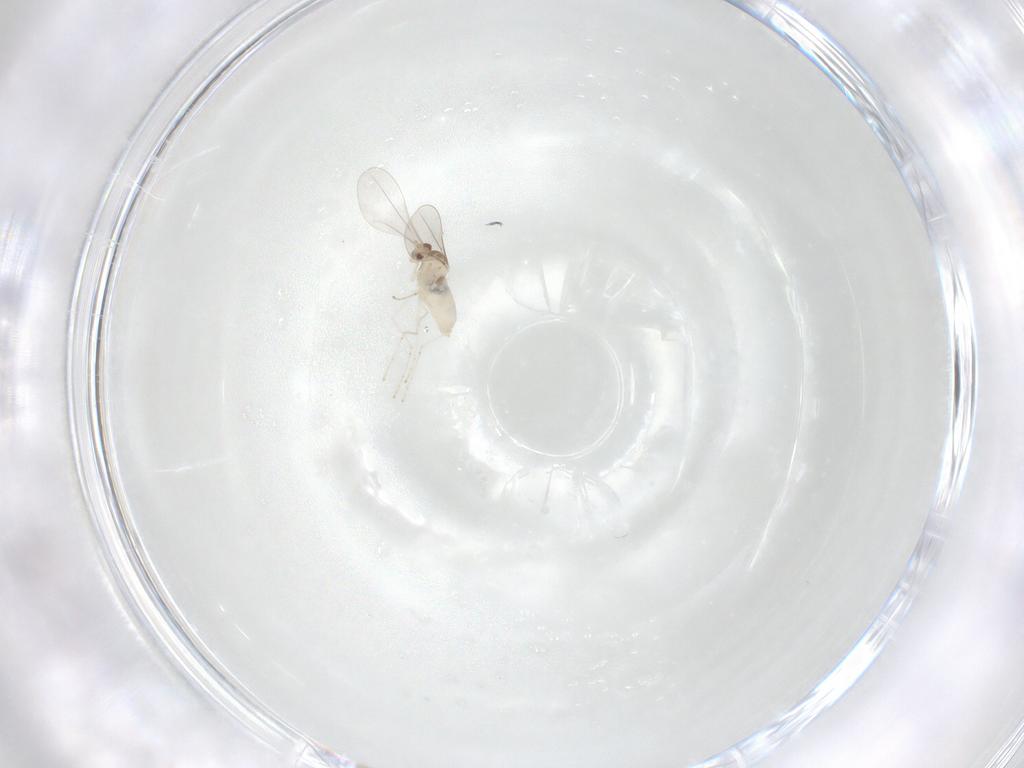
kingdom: Animalia
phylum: Arthropoda
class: Insecta
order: Diptera
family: Cecidomyiidae
